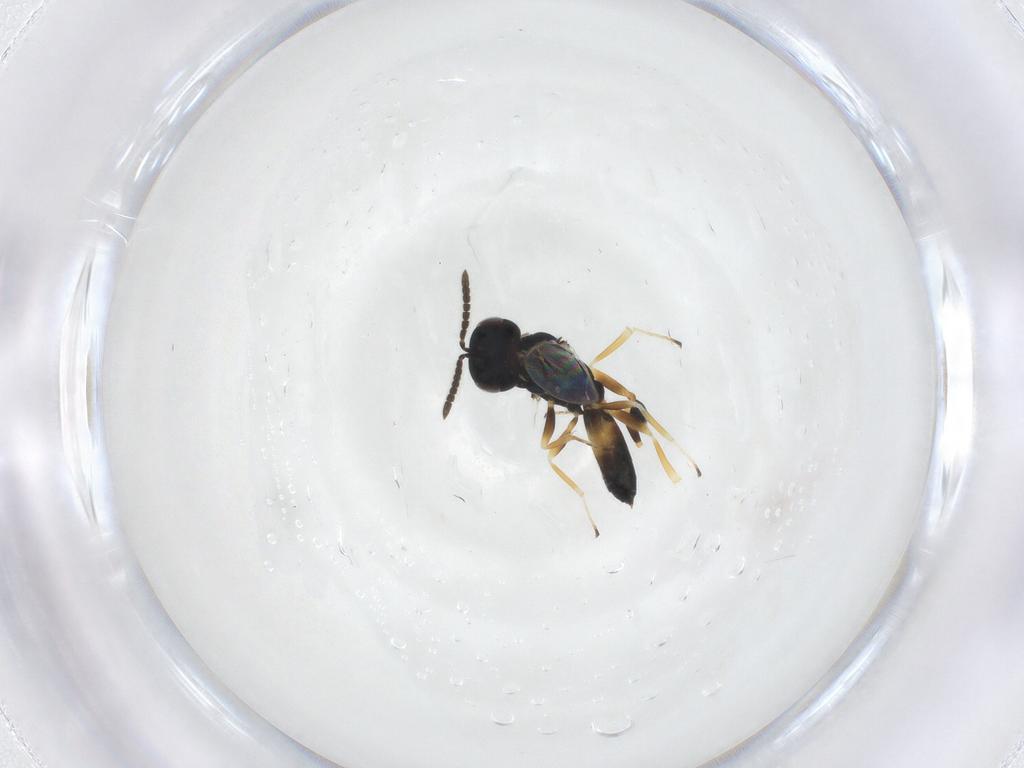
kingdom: Animalia
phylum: Arthropoda
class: Insecta
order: Hymenoptera
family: Pteromalidae
